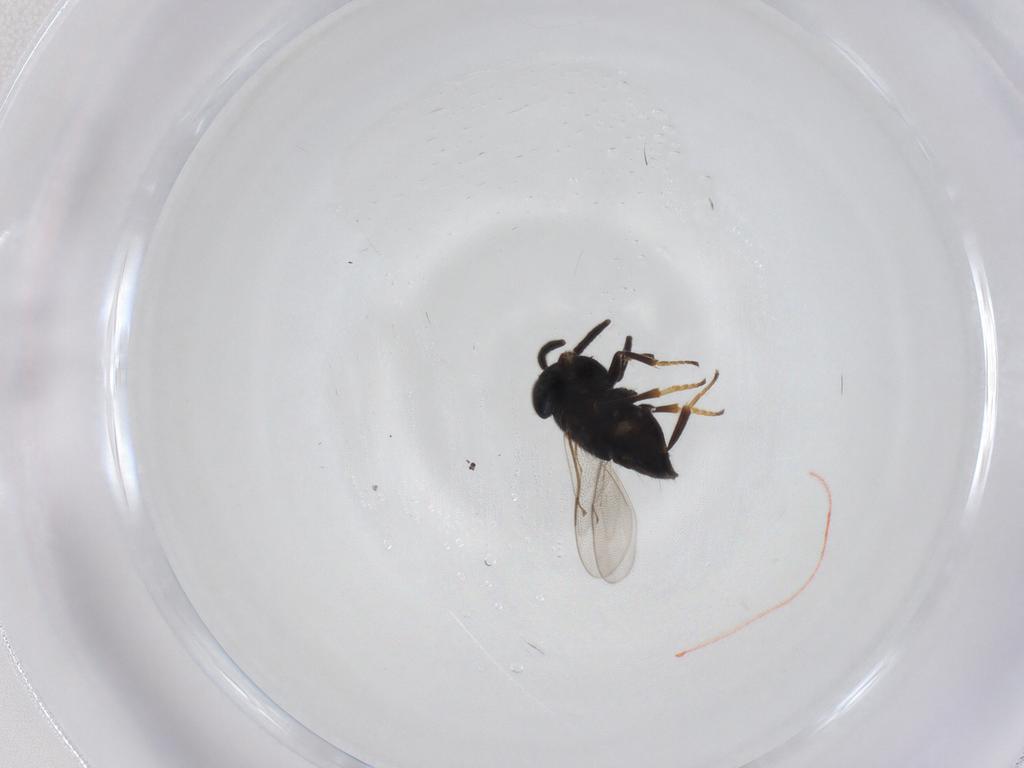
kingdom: Animalia
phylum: Arthropoda
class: Insecta
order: Hymenoptera
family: Encyrtidae
